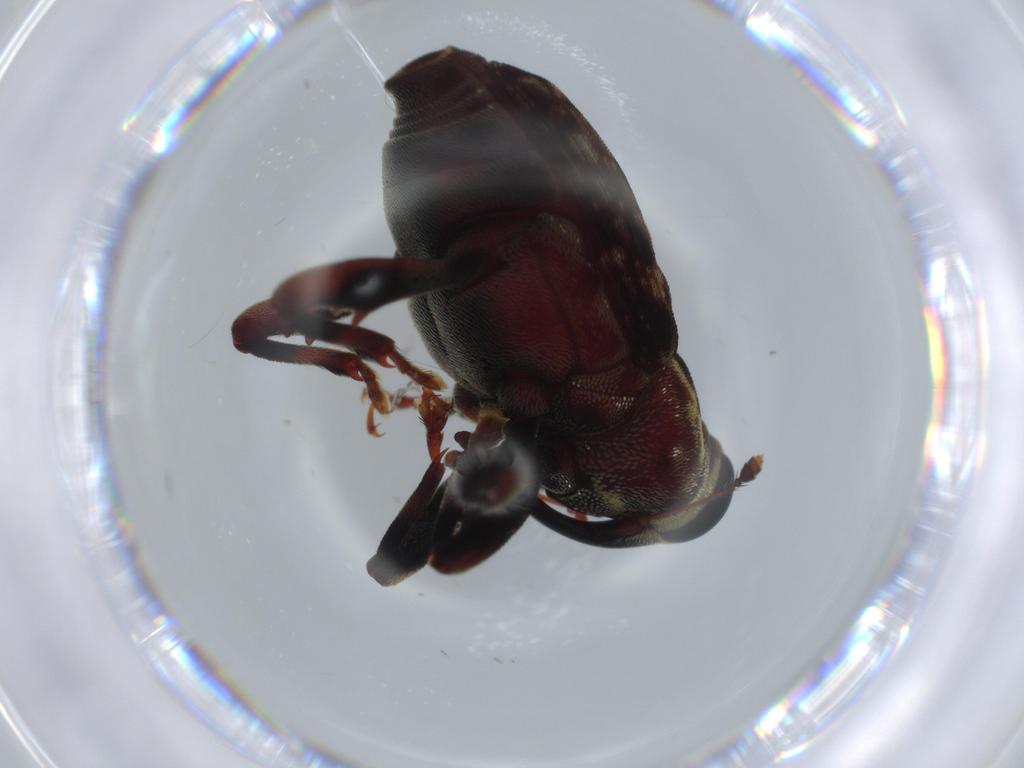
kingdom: Animalia
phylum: Arthropoda
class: Insecta
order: Coleoptera
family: Curculionidae
